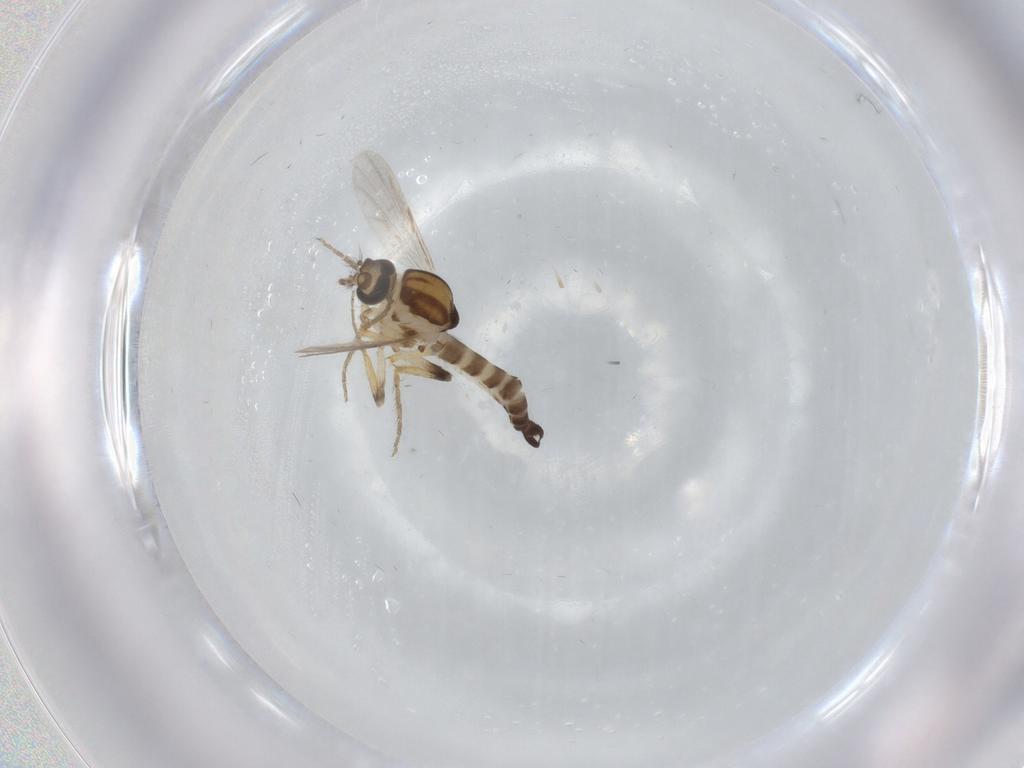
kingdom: Animalia
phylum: Arthropoda
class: Insecta
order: Diptera
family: Ceratopogonidae
